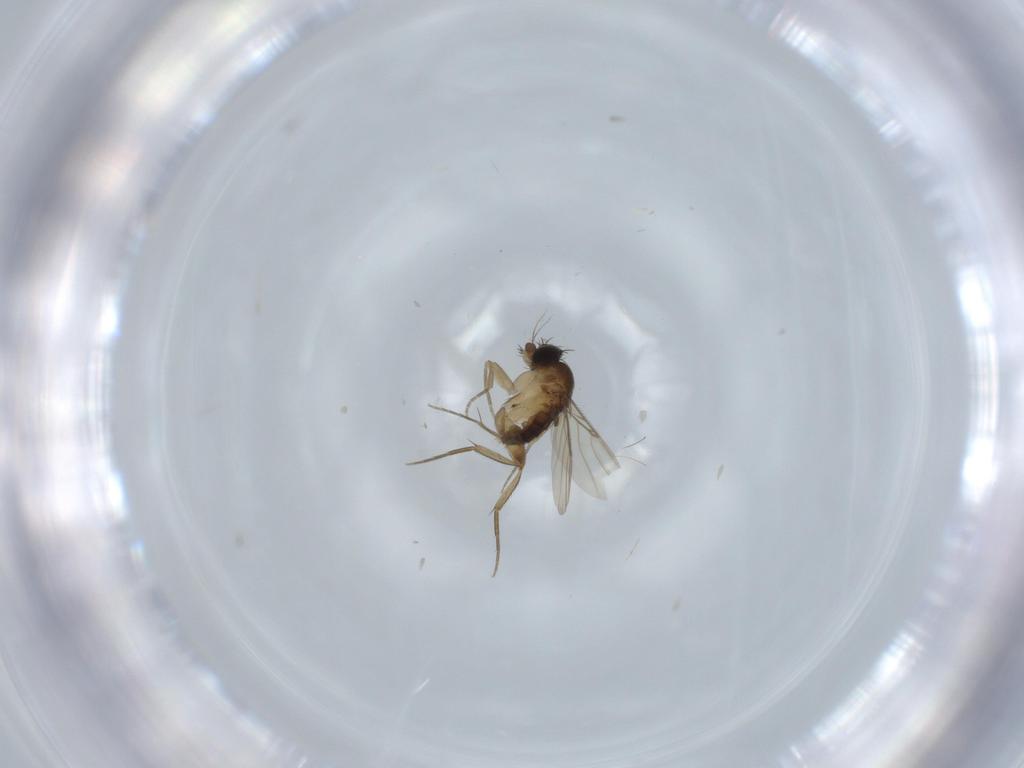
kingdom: Animalia
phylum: Arthropoda
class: Insecta
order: Diptera
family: Phoridae
